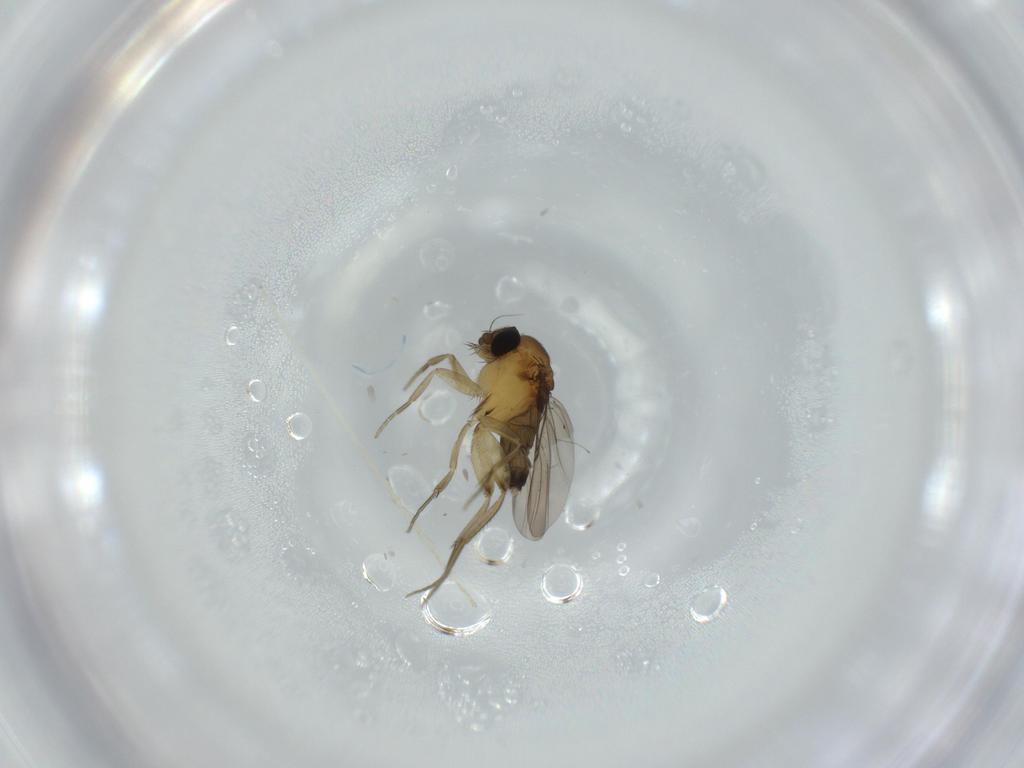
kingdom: Animalia
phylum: Arthropoda
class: Insecta
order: Diptera
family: Phoridae
